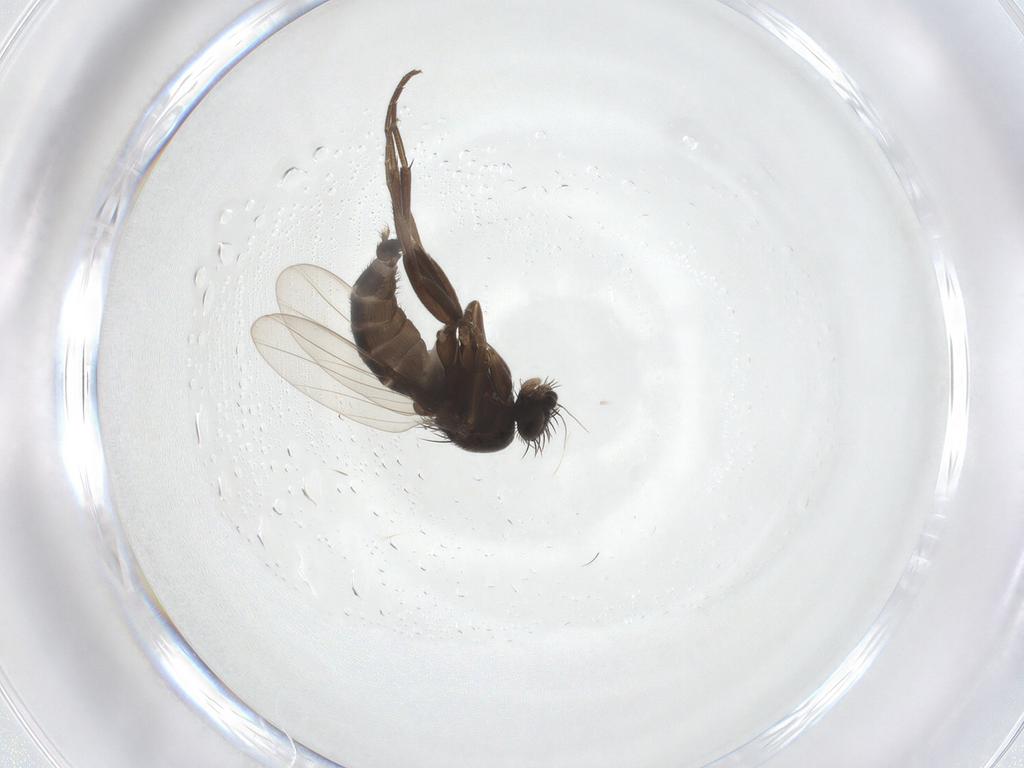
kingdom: Animalia
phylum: Arthropoda
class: Insecta
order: Diptera
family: Phoridae
